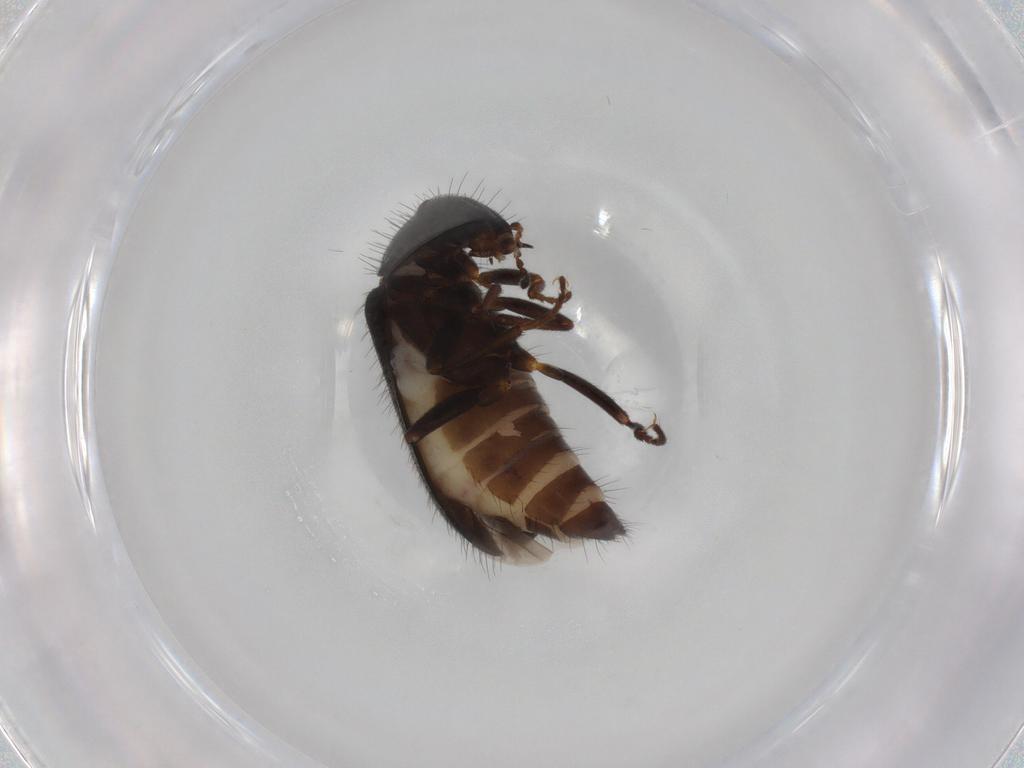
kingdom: Animalia
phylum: Arthropoda
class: Insecta
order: Coleoptera
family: Melyridae
